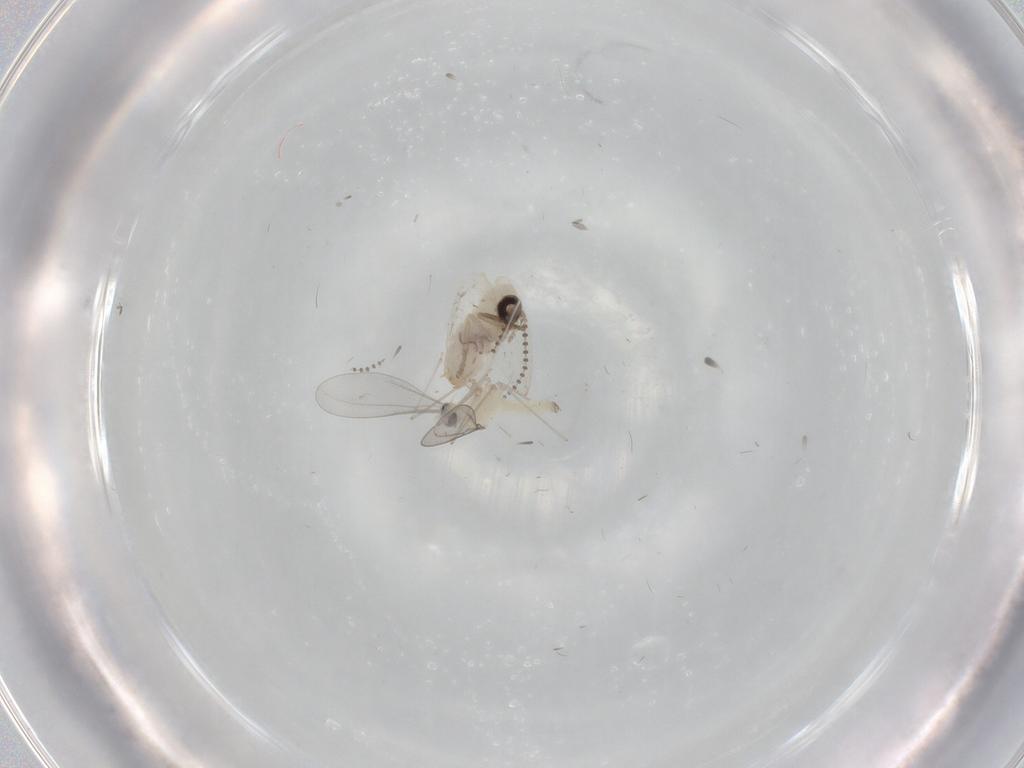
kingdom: Animalia
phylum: Arthropoda
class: Insecta
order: Diptera
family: Cecidomyiidae
